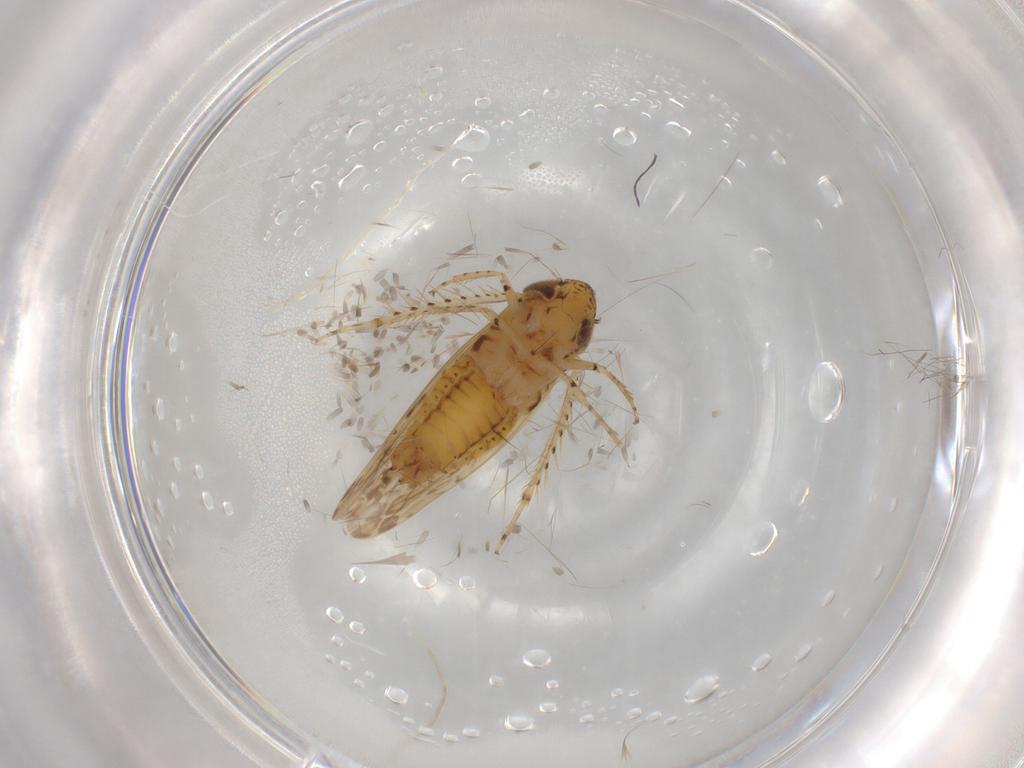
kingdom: Animalia
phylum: Arthropoda
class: Insecta
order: Hemiptera
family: Cicadellidae
